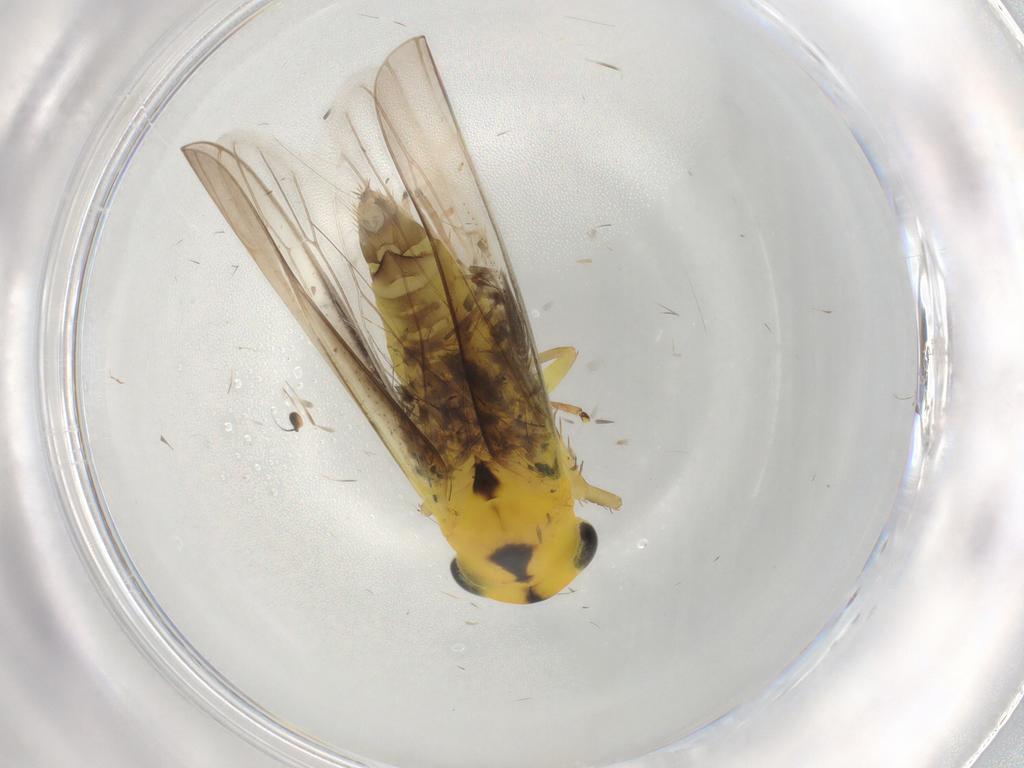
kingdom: Animalia
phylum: Arthropoda
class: Insecta
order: Hemiptera
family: Cicadellidae
